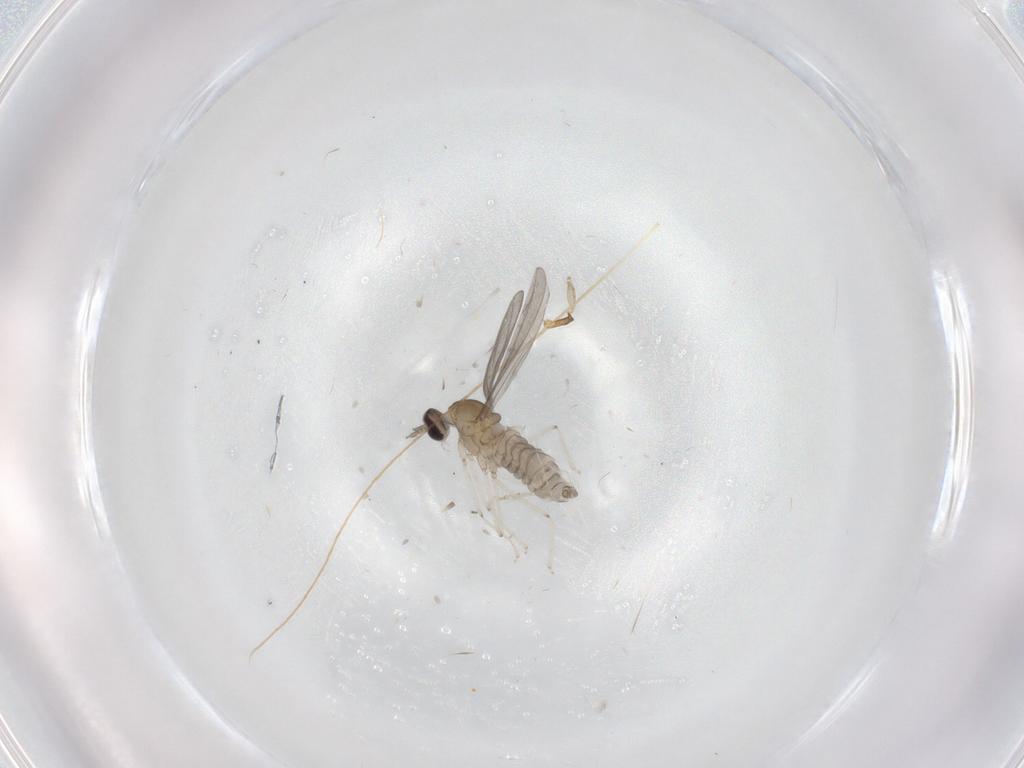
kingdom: Animalia
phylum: Arthropoda
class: Insecta
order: Diptera
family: Cecidomyiidae
